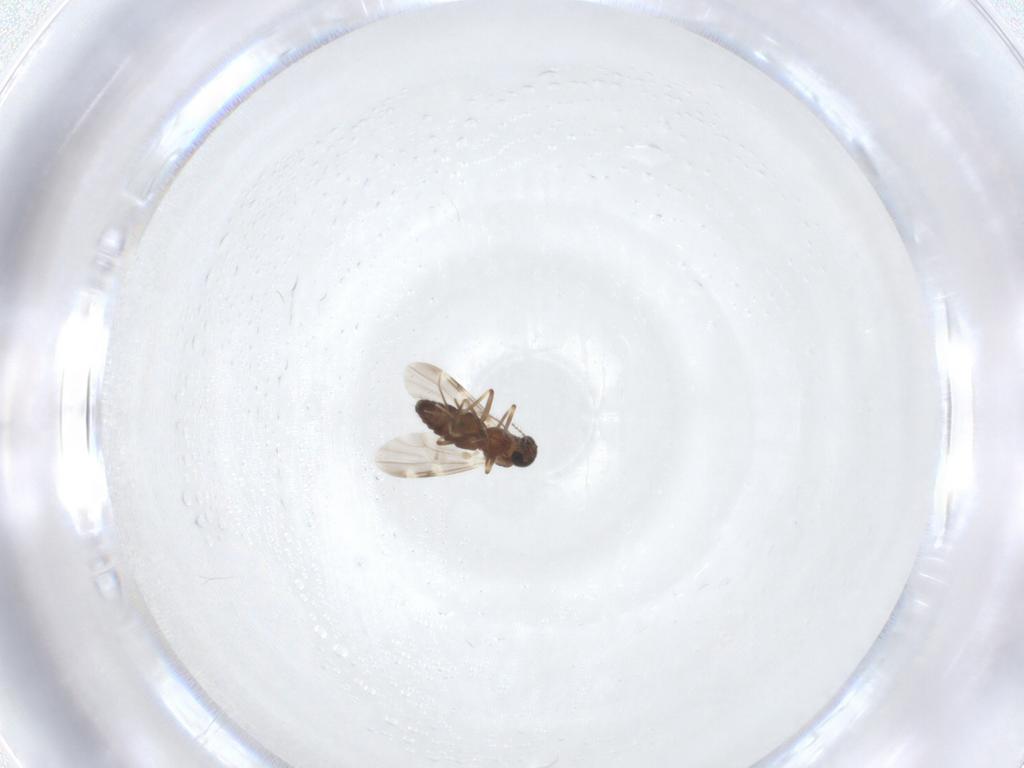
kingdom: Animalia
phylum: Arthropoda
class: Insecta
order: Diptera
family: Ceratopogonidae
